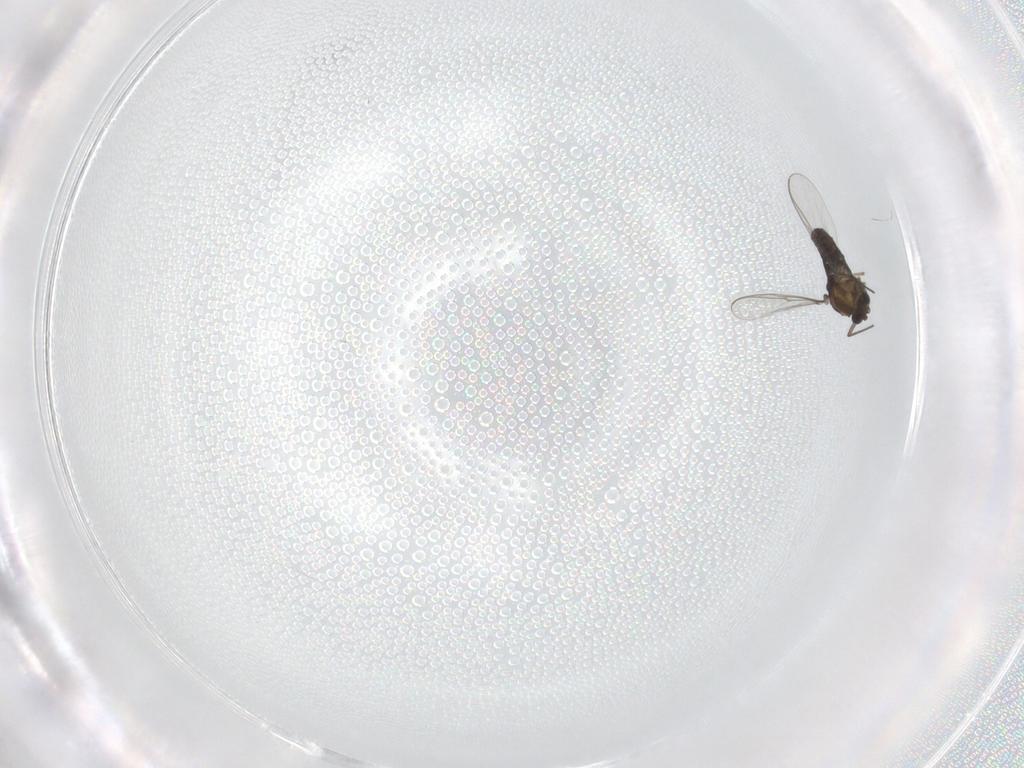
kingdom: Animalia
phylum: Arthropoda
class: Insecta
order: Diptera
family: Chironomidae
